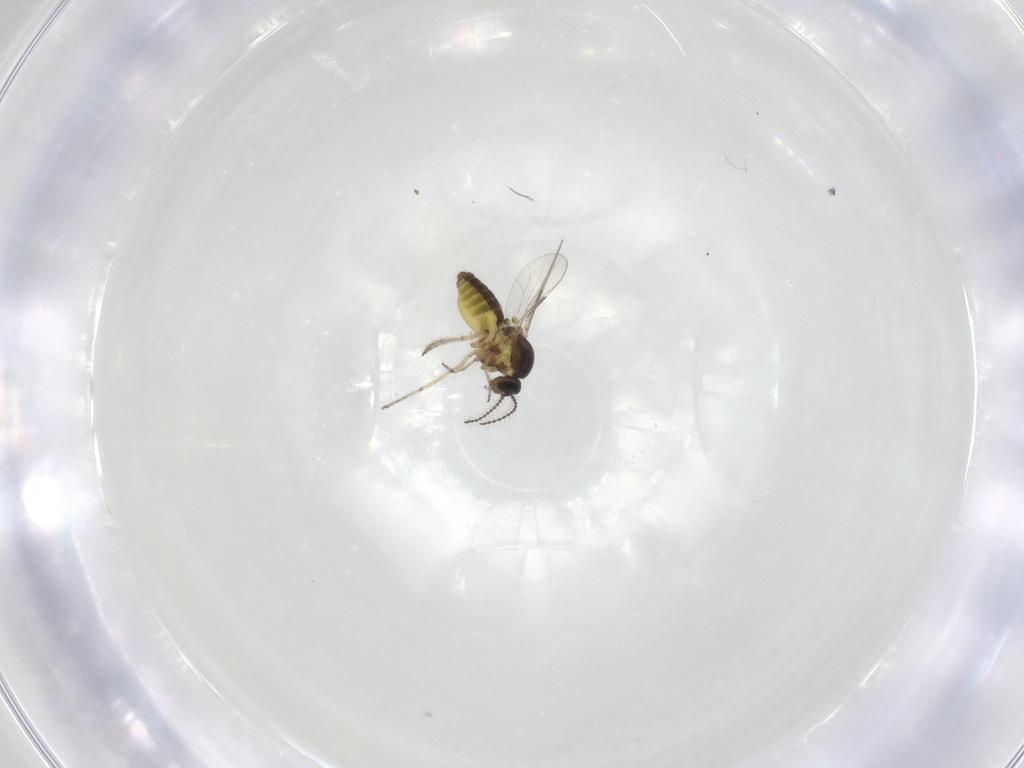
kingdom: Animalia
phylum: Arthropoda
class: Insecta
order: Diptera
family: Ceratopogonidae
